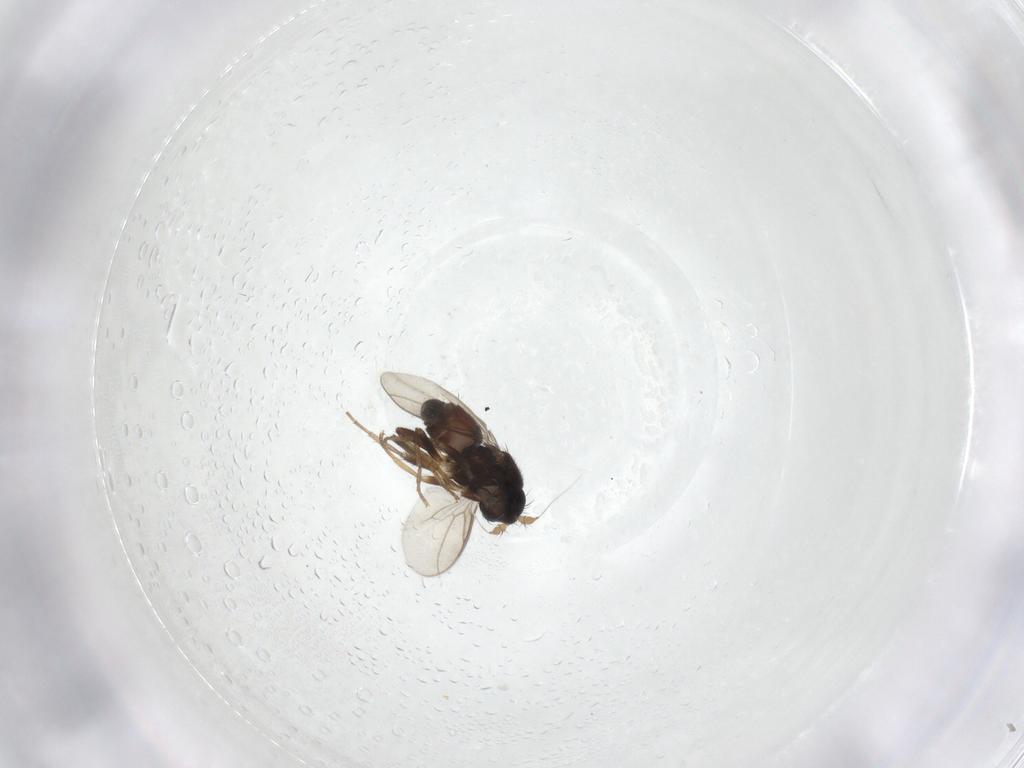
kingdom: Animalia
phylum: Arthropoda
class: Insecta
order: Diptera
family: Sphaeroceridae
